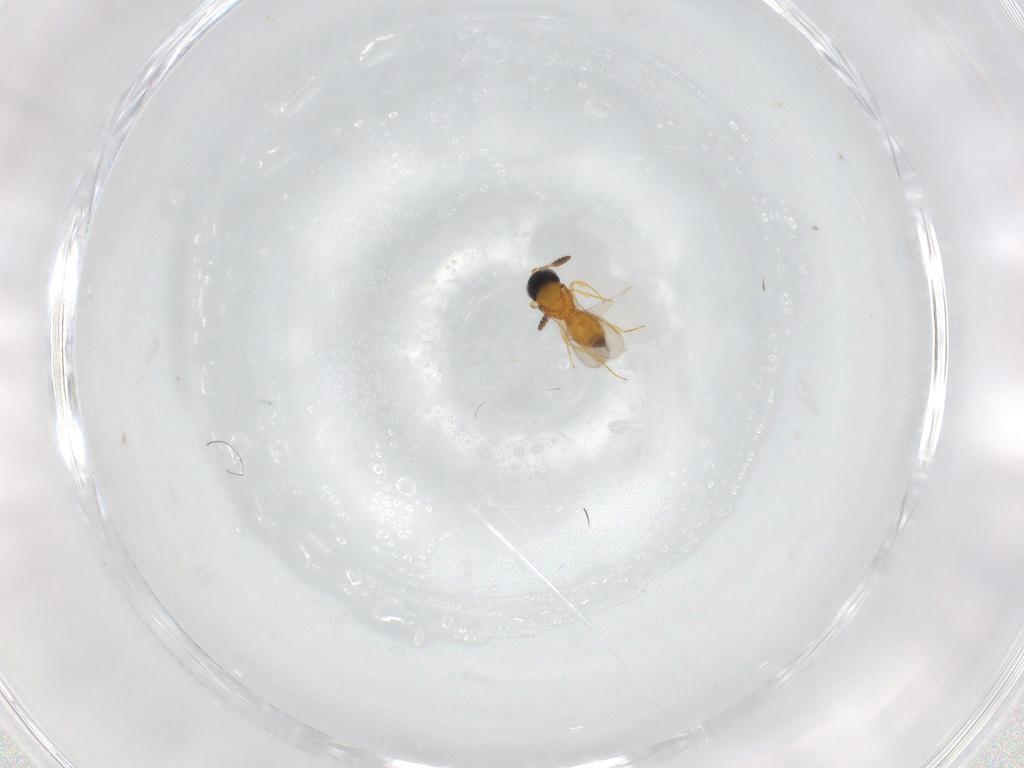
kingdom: Animalia
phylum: Arthropoda
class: Insecta
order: Hymenoptera
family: Scelionidae
